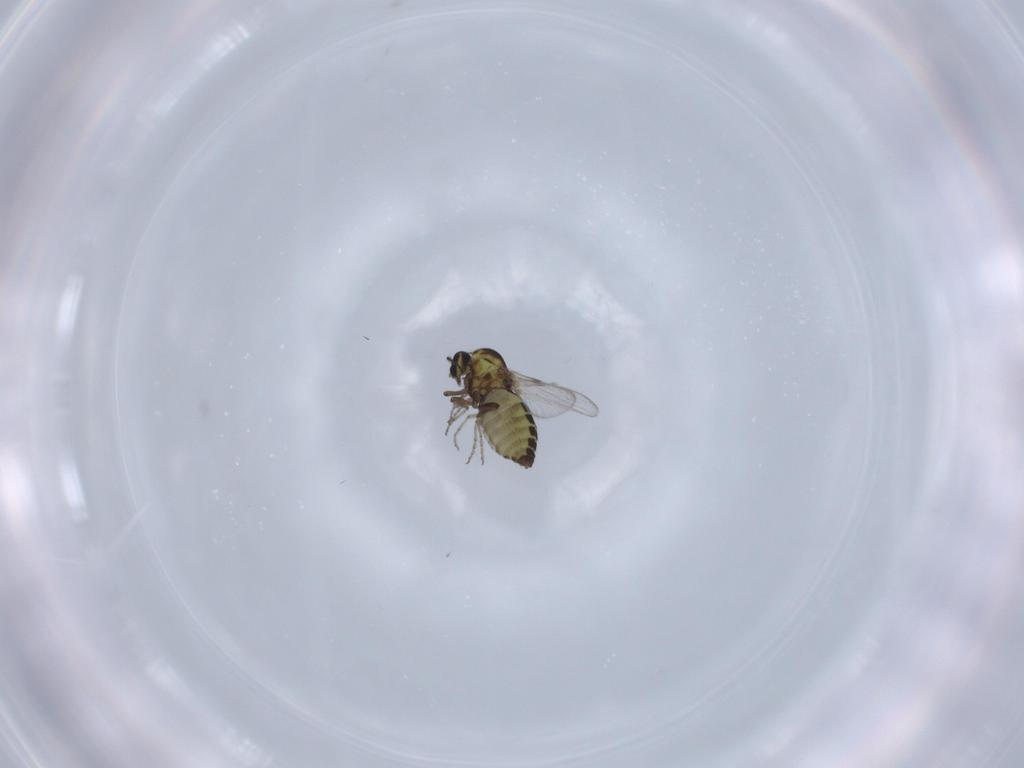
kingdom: Animalia
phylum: Arthropoda
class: Insecta
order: Diptera
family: Ceratopogonidae
